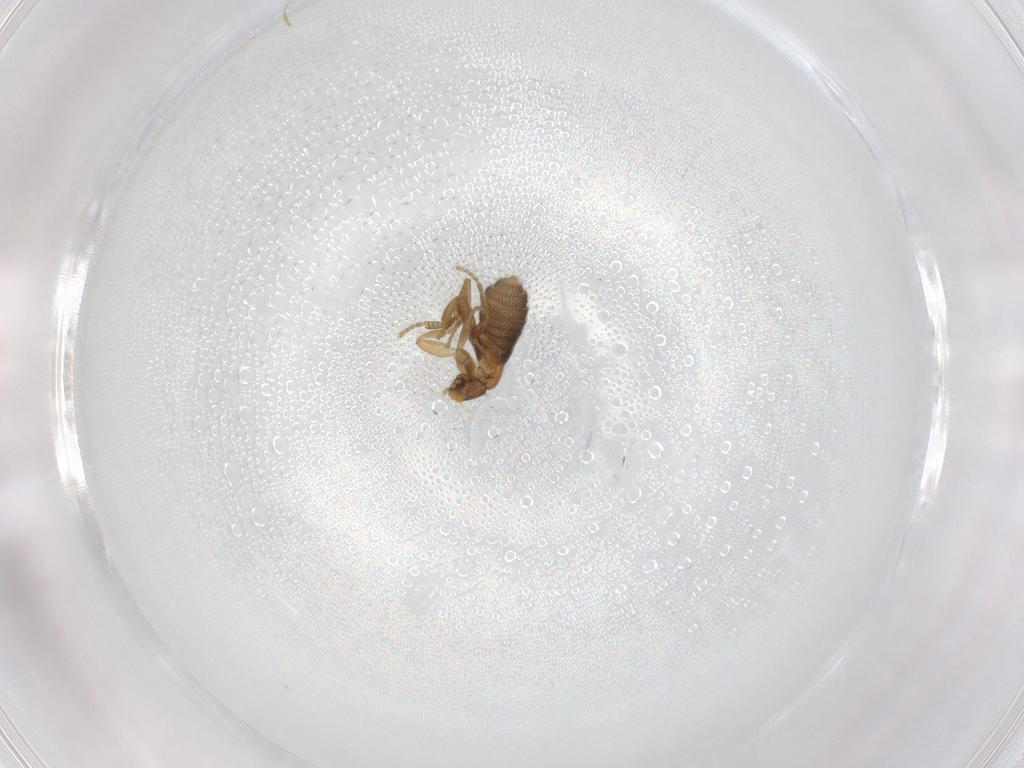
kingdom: Animalia
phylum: Arthropoda
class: Insecta
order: Diptera
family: Phoridae
